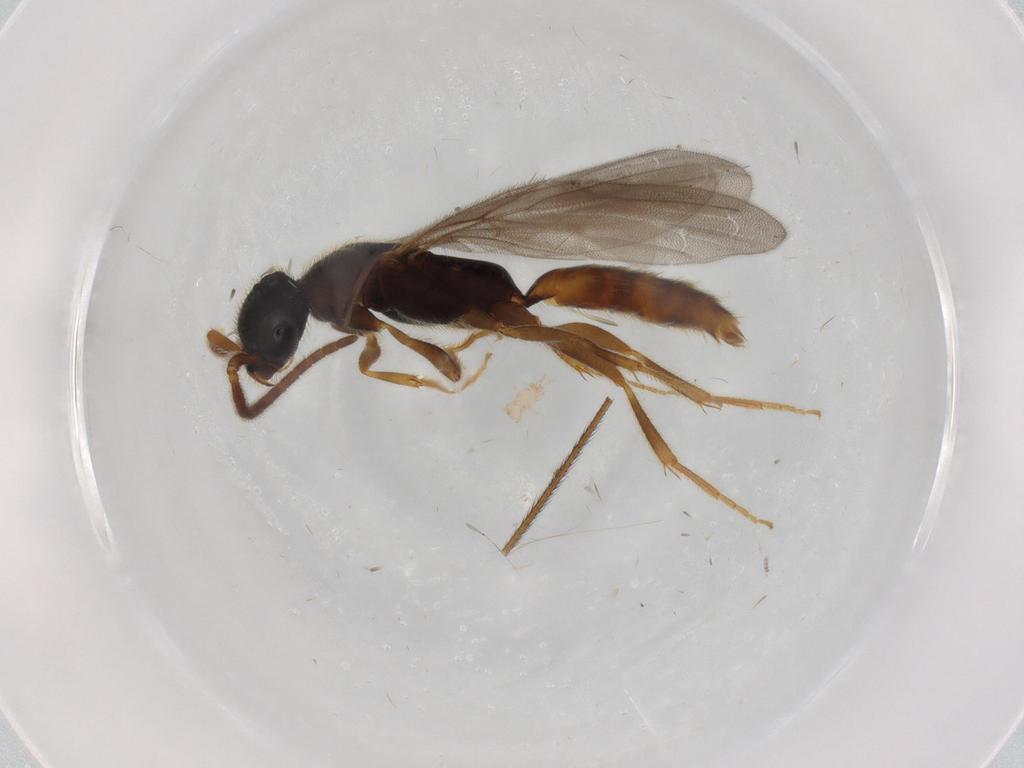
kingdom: Animalia
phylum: Arthropoda
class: Insecta
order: Hymenoptera
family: Bethylidae
